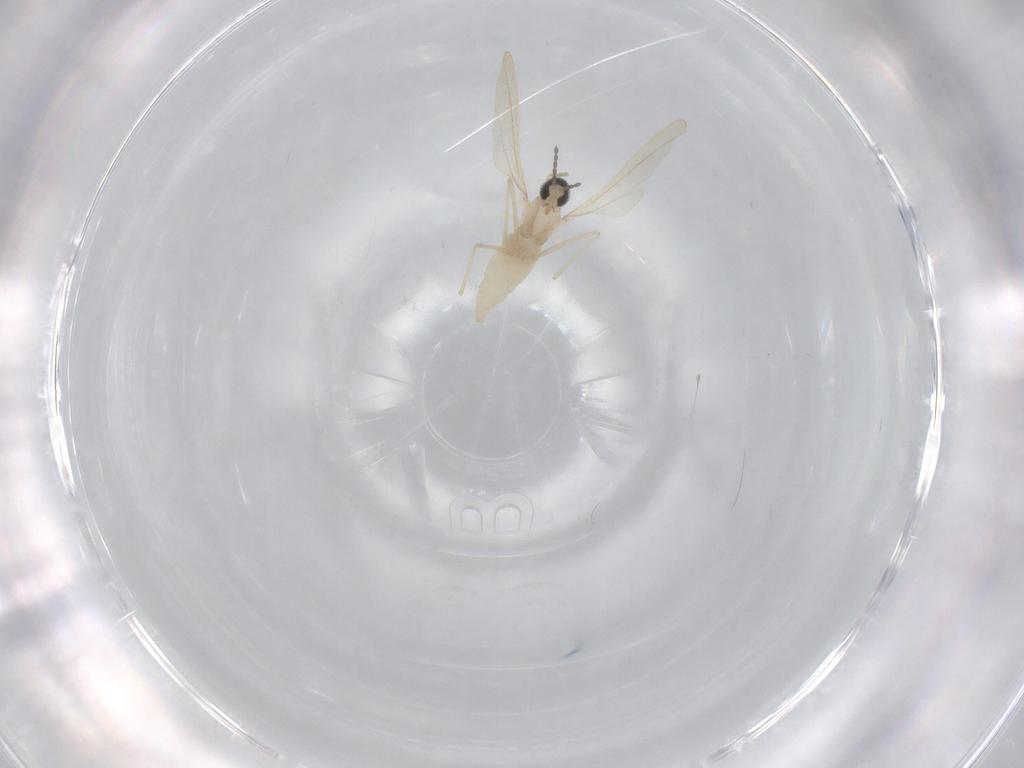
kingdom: Animalia
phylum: Arthropoda
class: Insecta
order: Diptera
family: Cecidomyiidae
